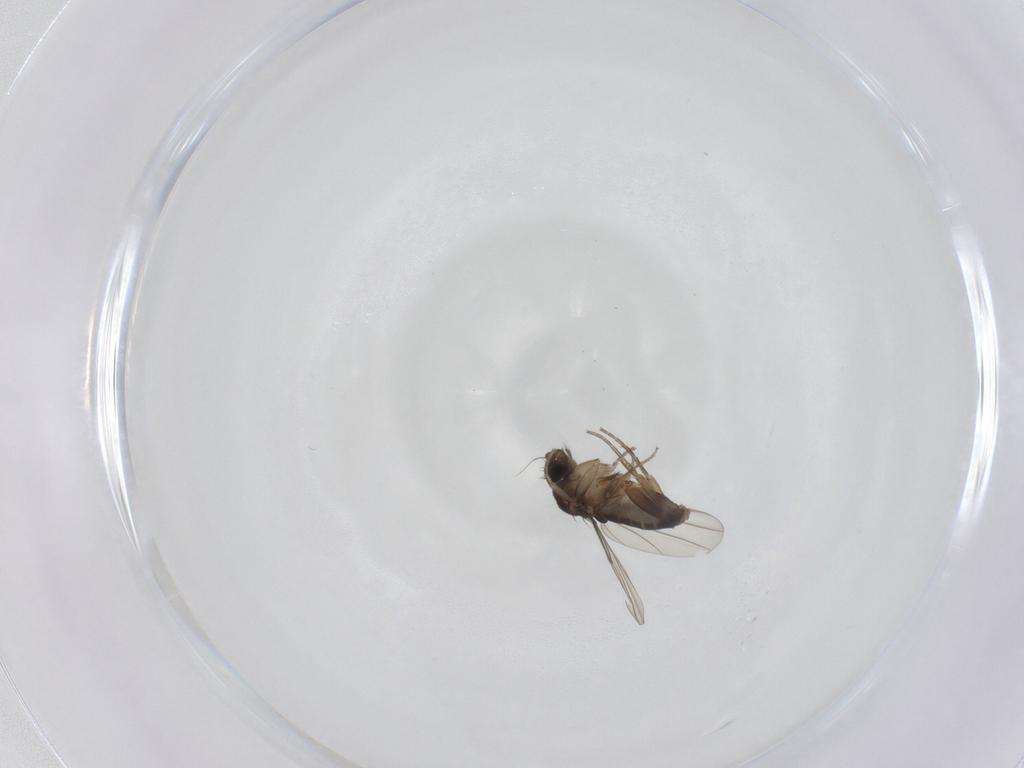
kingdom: Animalia
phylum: Arthropoda
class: Insecta
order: Diptera
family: Phoridae
